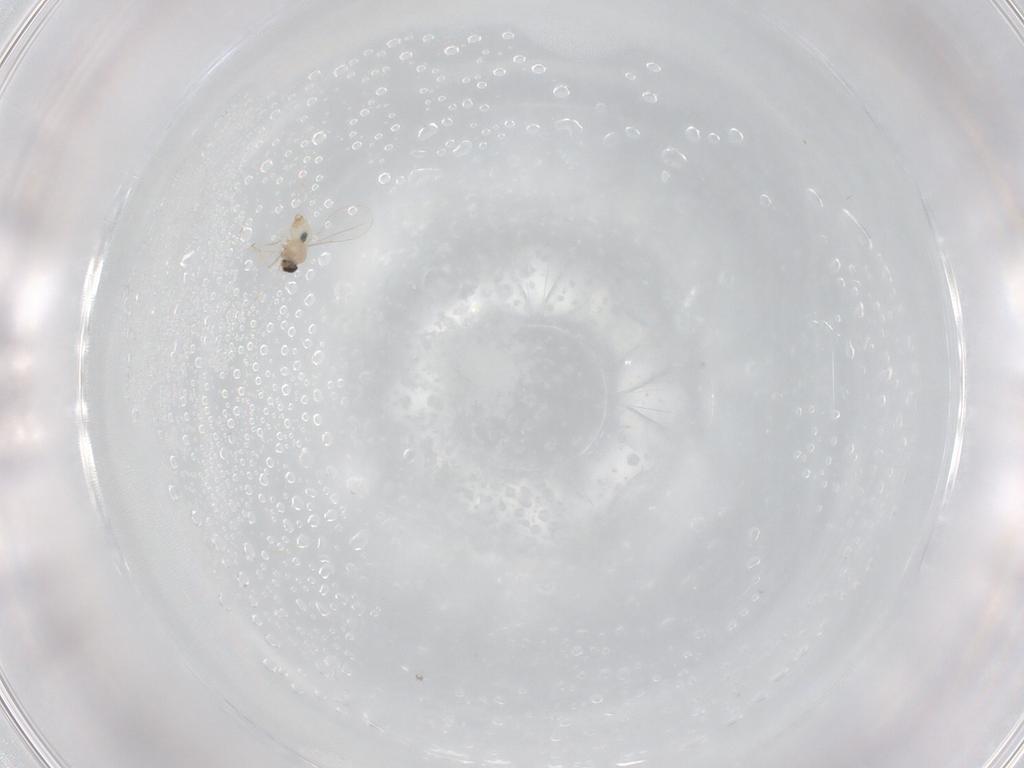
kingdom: Animalia
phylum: Arthropoda
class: Insecta
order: Diptera
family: Cecidomyiidae
